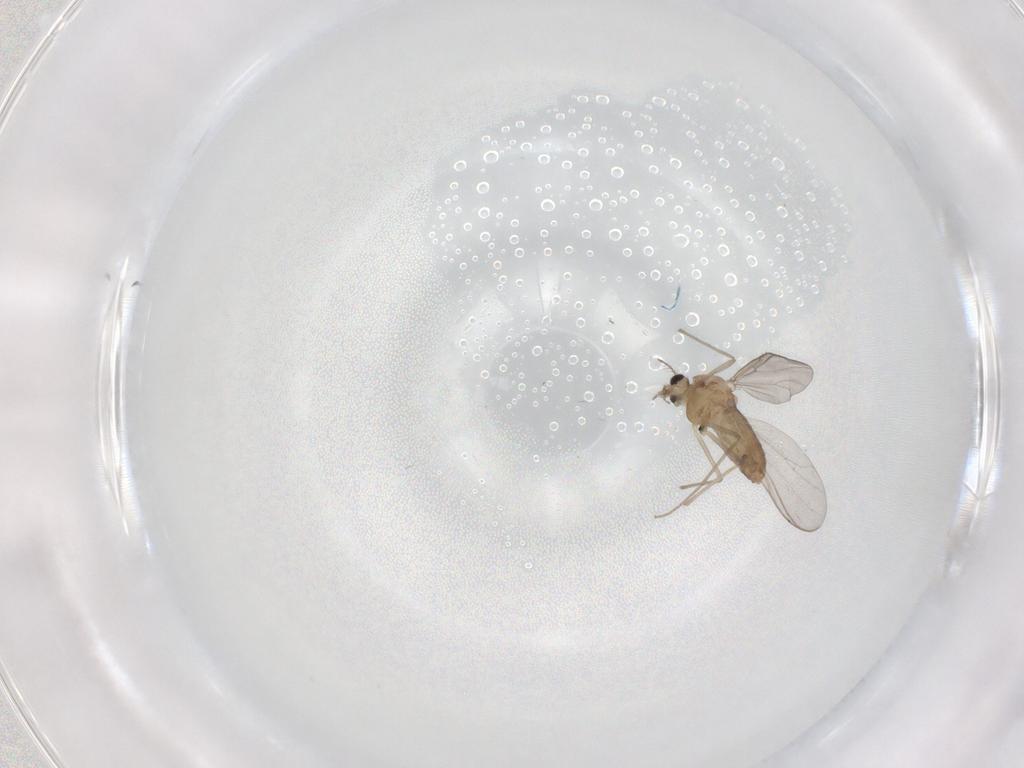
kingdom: Animalia
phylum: Arthropoda
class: Insecta
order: Diptera
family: Chironomidae
